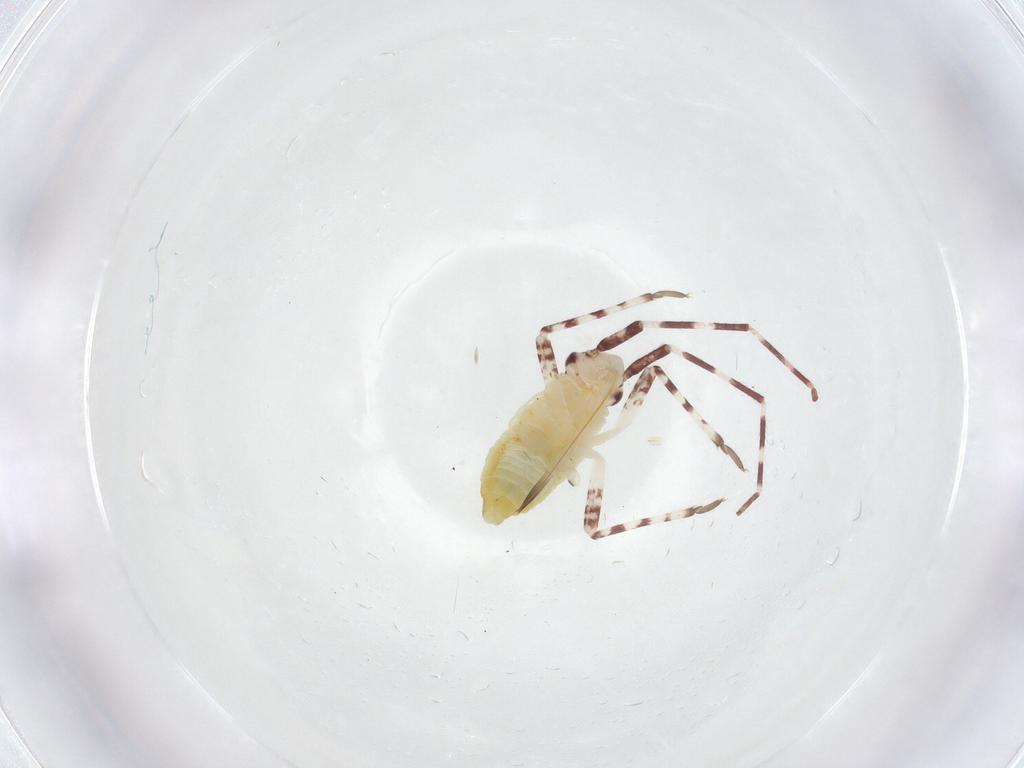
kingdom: Animalia
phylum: Arthropoda
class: Insecta
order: Hemiptera
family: Miridae
